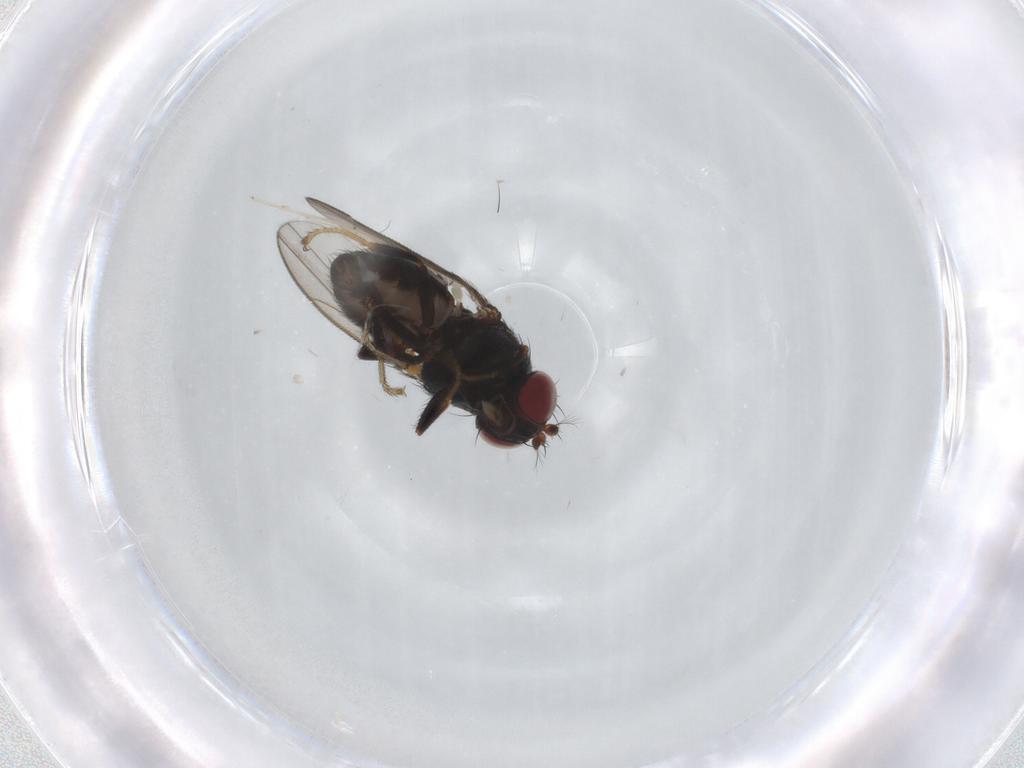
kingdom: Animalia
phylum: Arthropoda
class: Insecta
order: Diptera
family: Ephydridae
